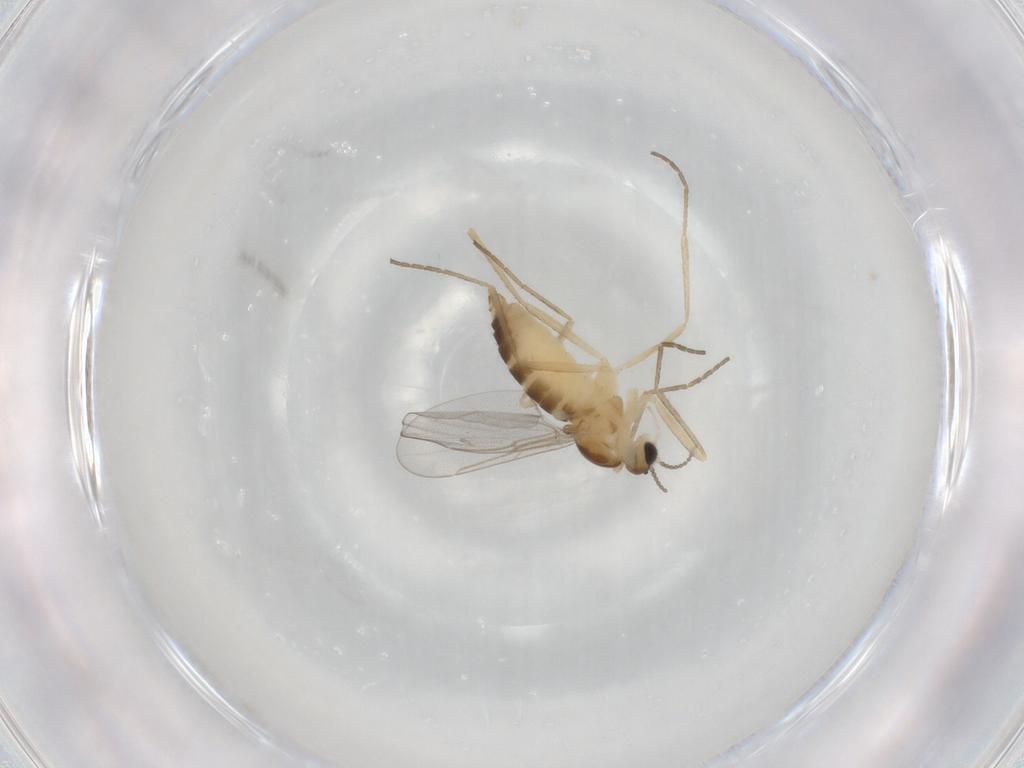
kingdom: Animalia
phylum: Arthropoda
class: Insecta
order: Diptera
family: Cecidomyiidae
